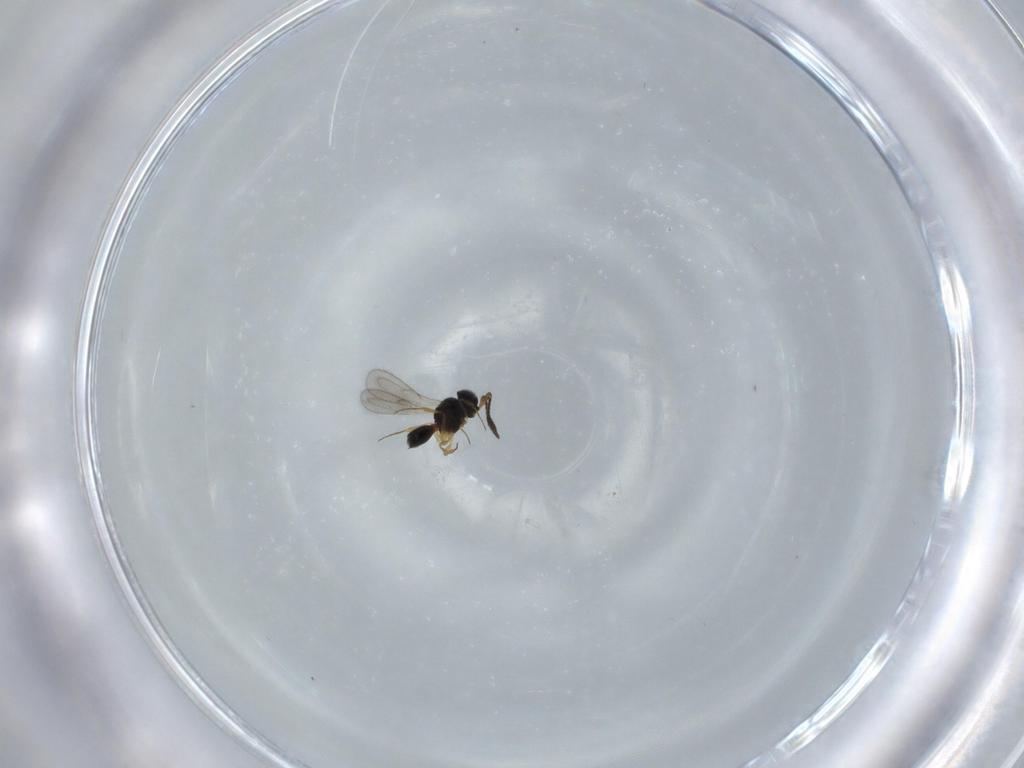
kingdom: Animalia
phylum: Arthropoda
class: Insecta
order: Hymenoptera
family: Scelionidae
